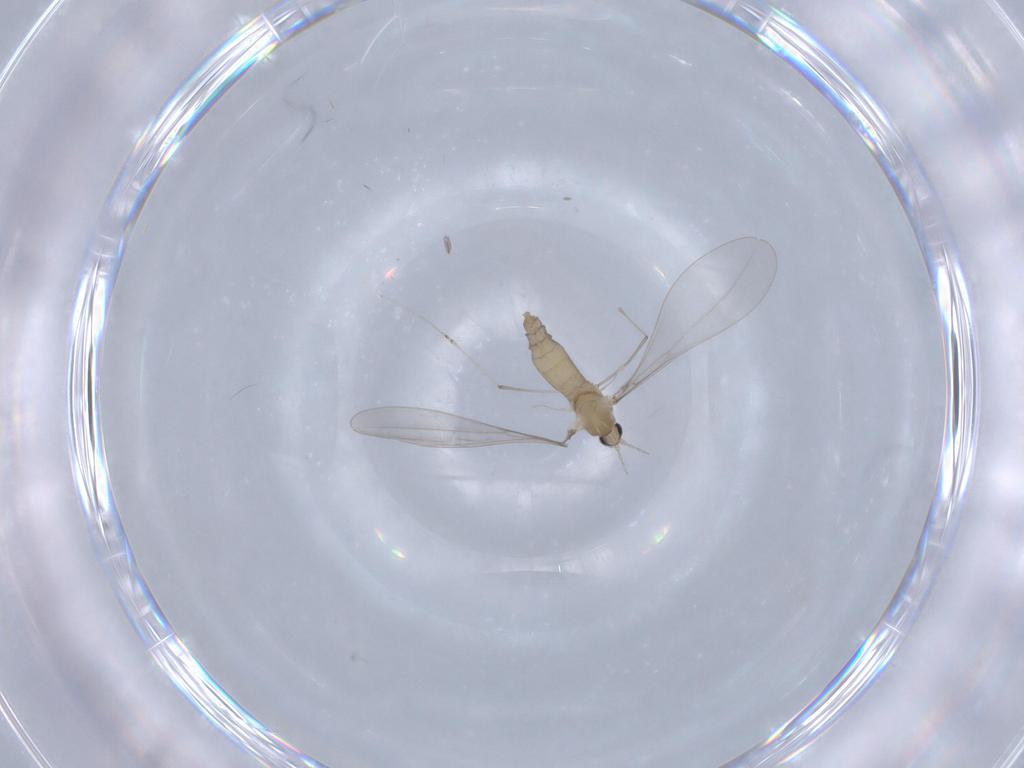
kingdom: Animalia
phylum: Arthropoda
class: Insecta
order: Diptera
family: Cecidomyiidae
